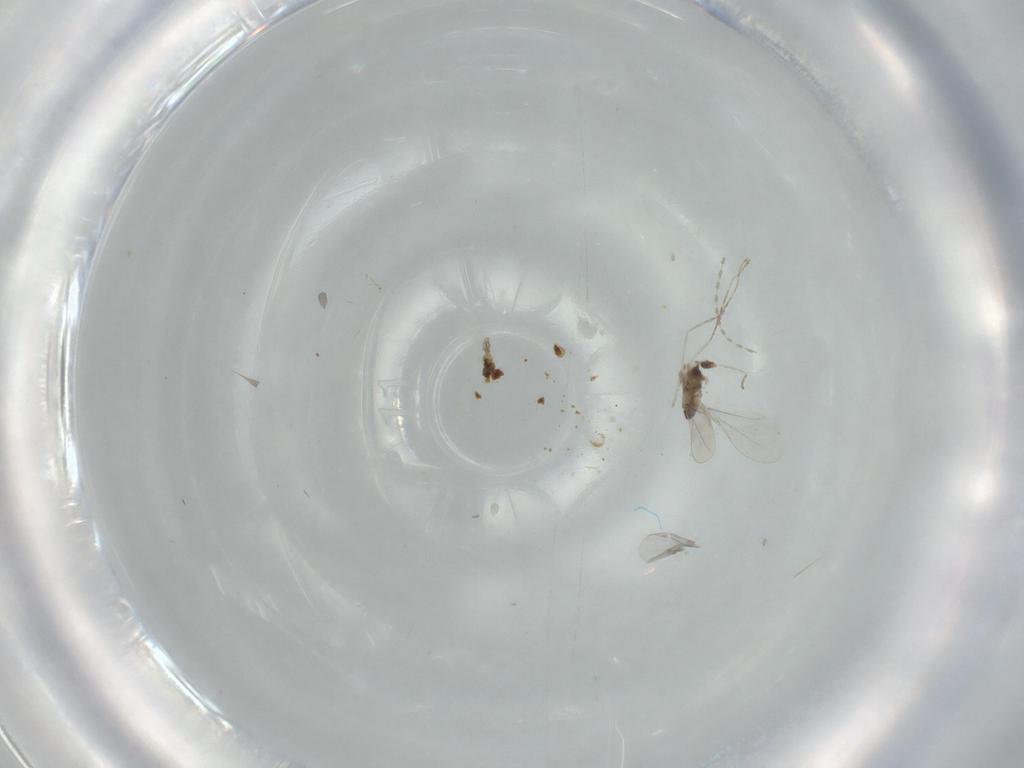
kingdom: Animalia
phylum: Arthropoda
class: Insecta
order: Diptera
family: Cecidomyiidae
